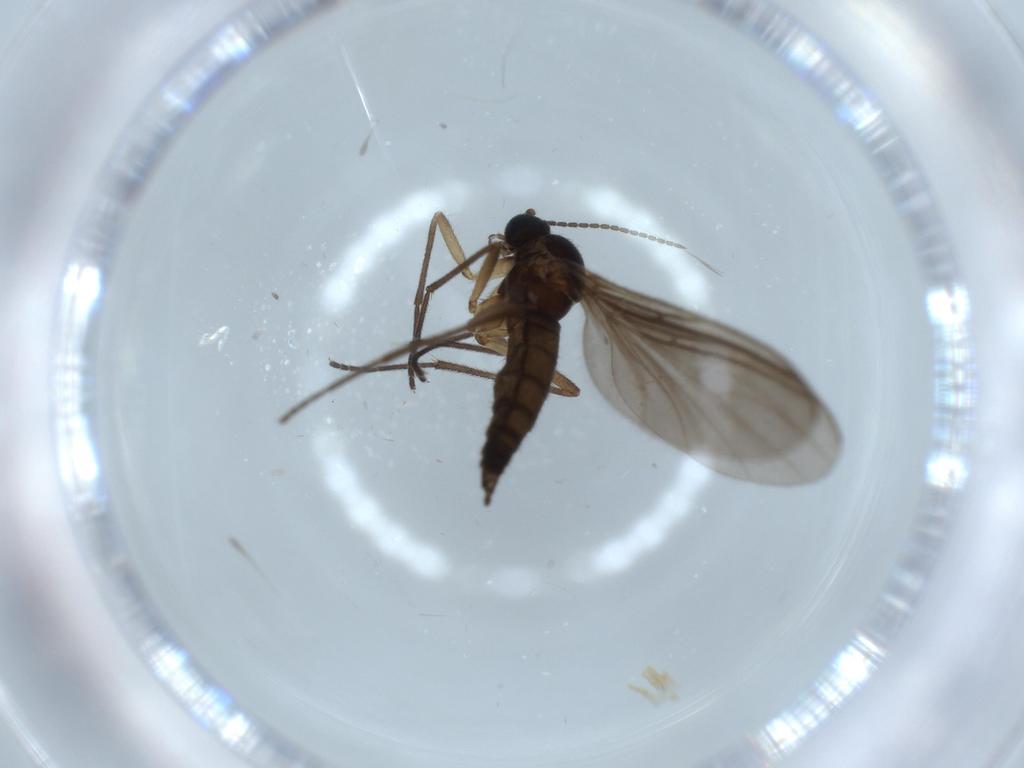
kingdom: Animalia
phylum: Arthropoda
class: Insecta
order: Diptera
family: Sciaridae
